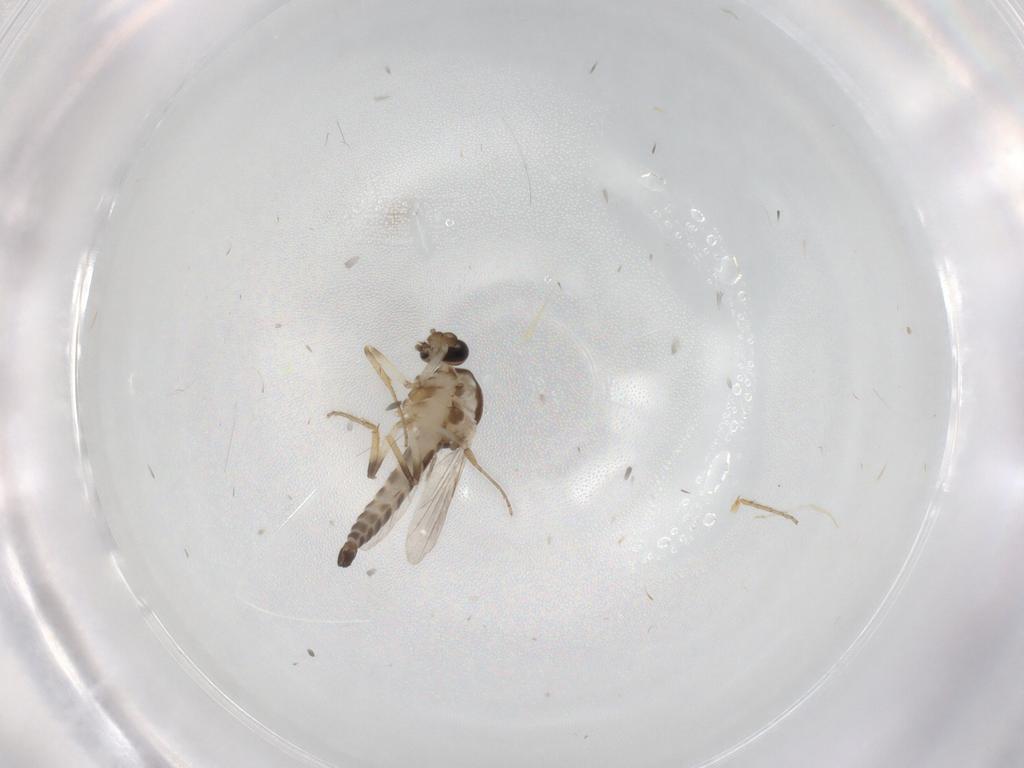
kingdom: Animalia
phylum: Arthropoda
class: Insecta
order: Diptera
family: Ceratopogonidae
